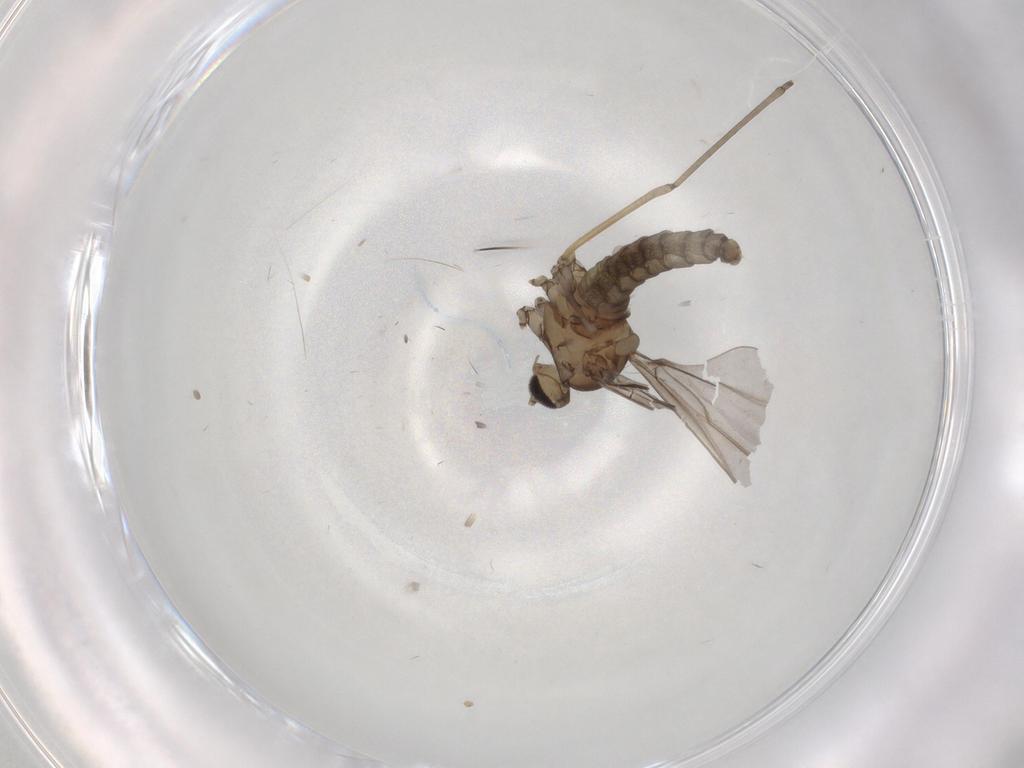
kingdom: Animalia
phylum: Arthropoda
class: Insecta
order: Diptera
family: Cecidomyiidae
